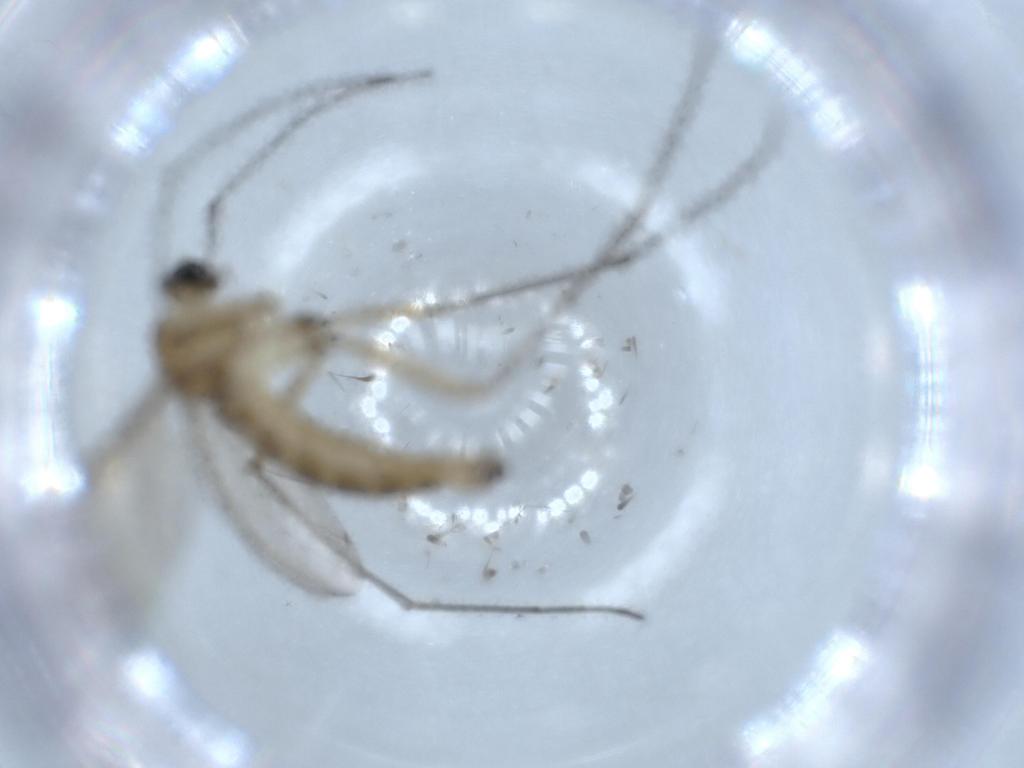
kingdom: Animalia
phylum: Arthropoda
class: Insecta
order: Diptera
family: Sciaridae
